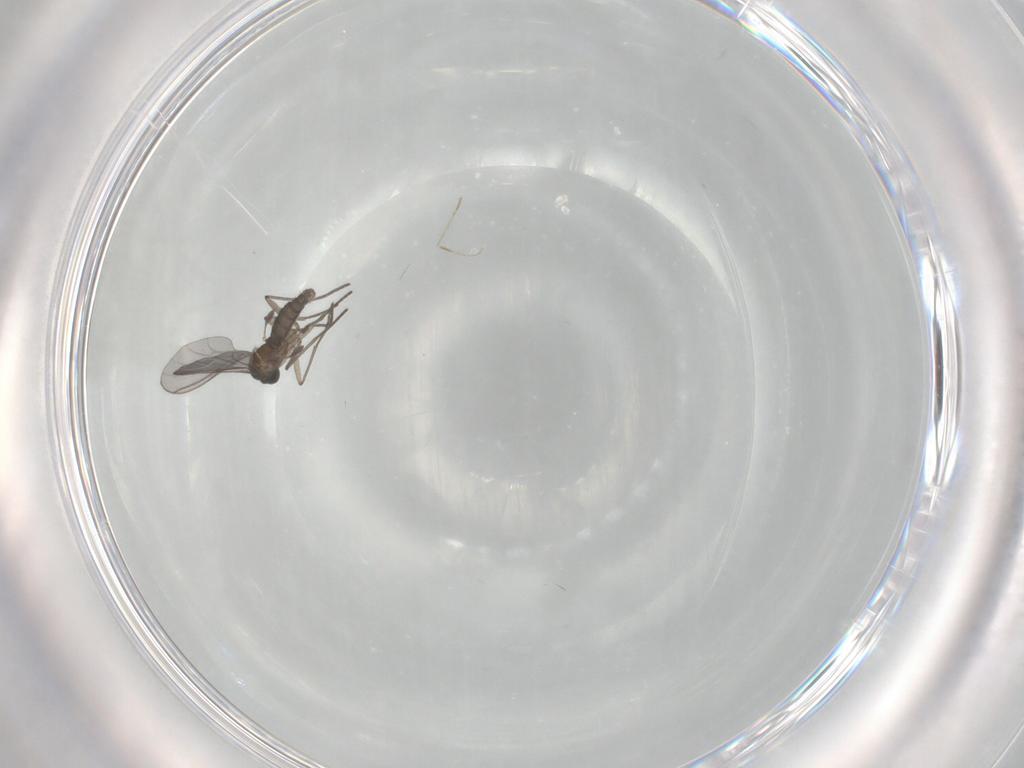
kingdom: Animalia
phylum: Arthropoda
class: Insecta
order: Diptera
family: Sciaridae
